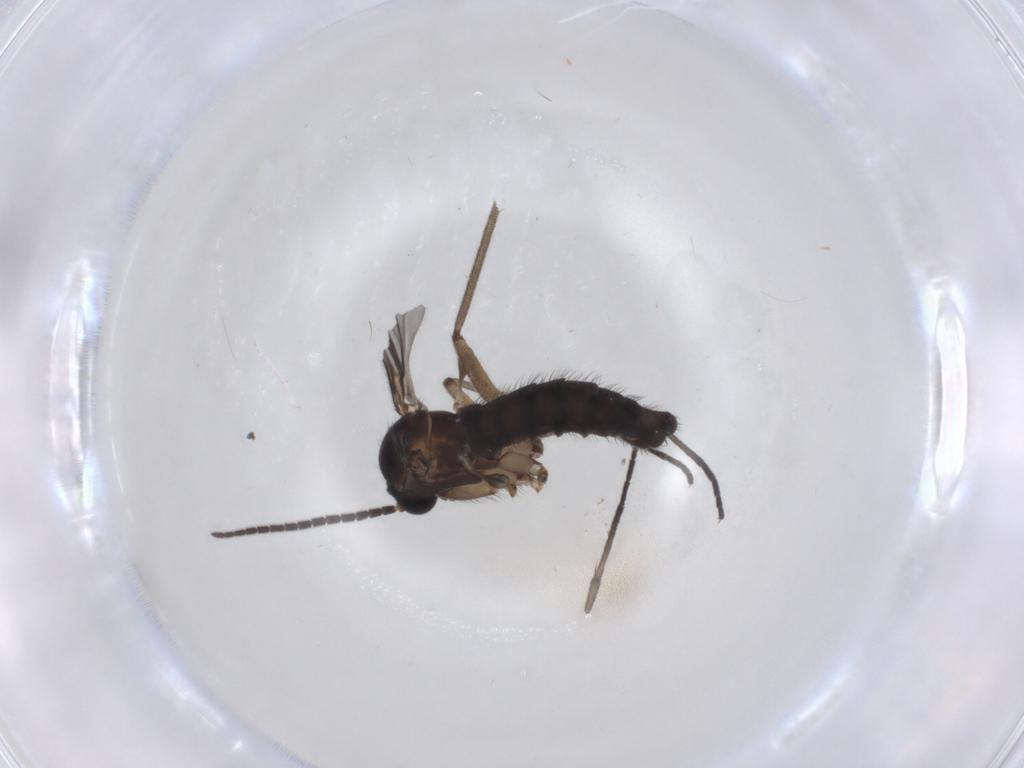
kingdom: Animalia
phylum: Arthropoda
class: Insecta
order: Diptera
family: Sciaridae
